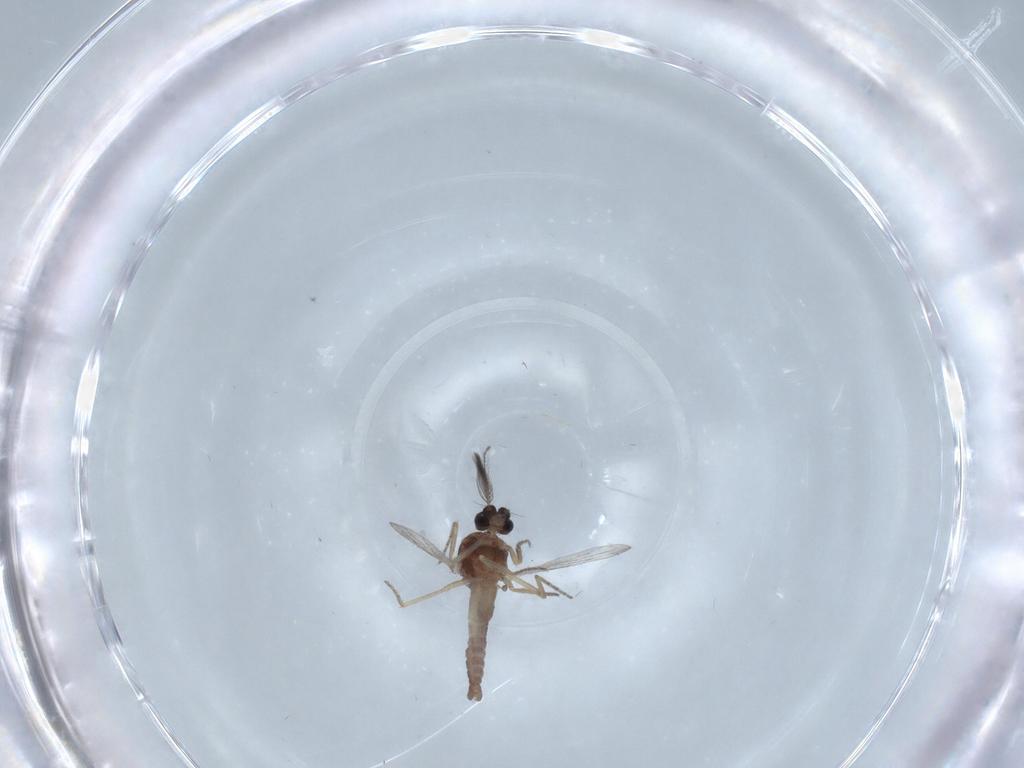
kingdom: Animalia
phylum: Arthropoda
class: Insecta
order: Diptera
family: Ceratopogonidae
